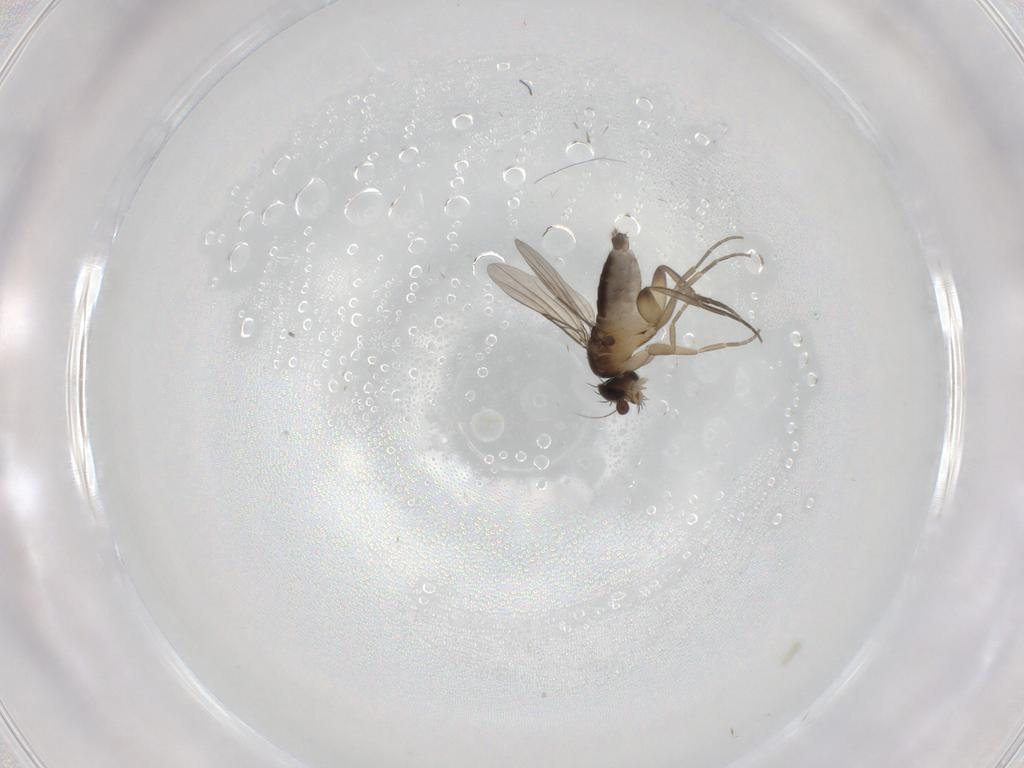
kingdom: Animalia
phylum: Arthropoda
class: Insecta
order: Diptera
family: Phoridae
